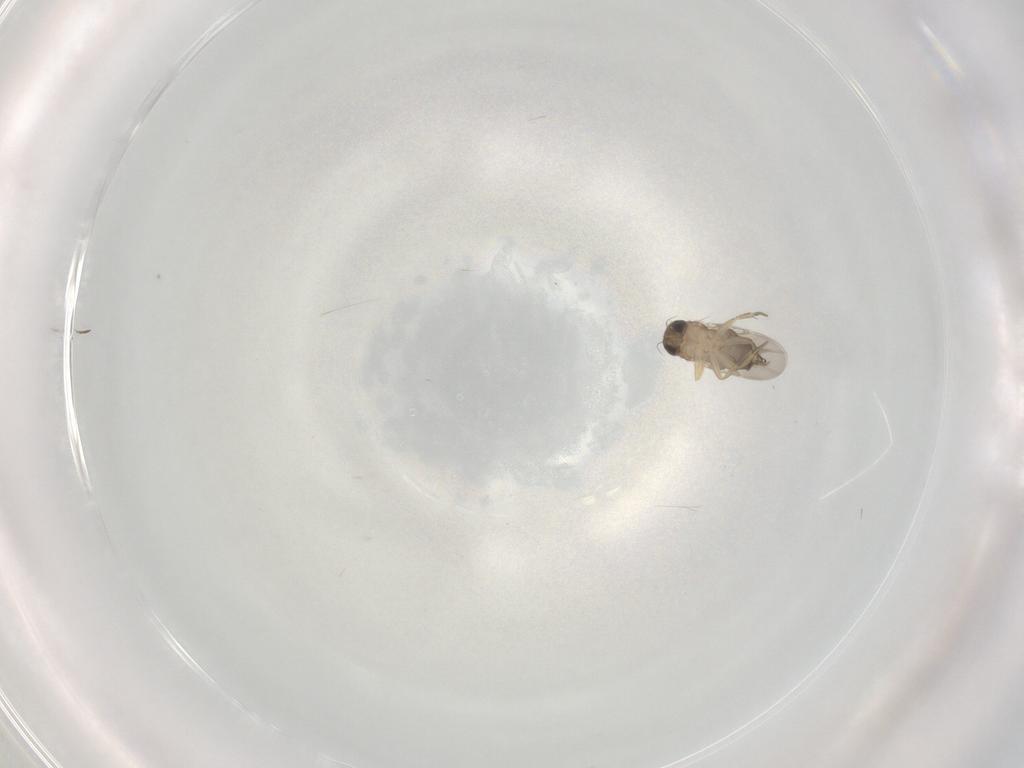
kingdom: Animalia
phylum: Arthropoda
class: Insecta
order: Diptera
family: Phoridae
